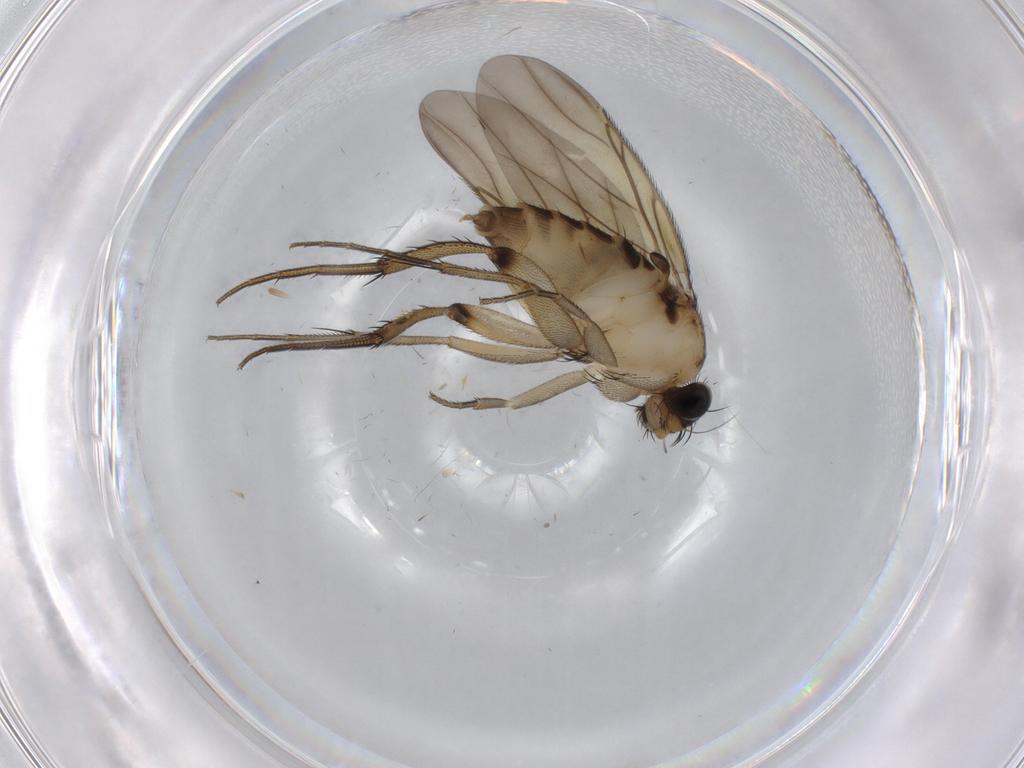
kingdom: Animalia
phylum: Arthropoda
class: Insecta
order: Diptera
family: Phoridae
